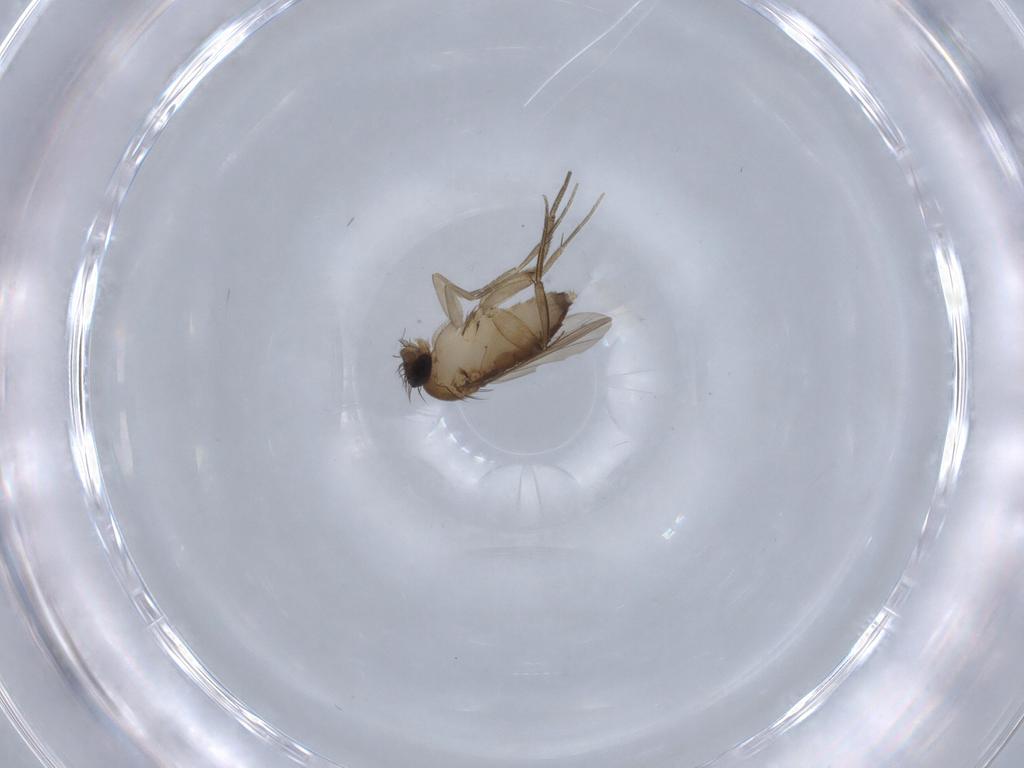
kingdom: Animalia
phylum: Arthropoda
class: Insecta
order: Diptera
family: Phoridae
